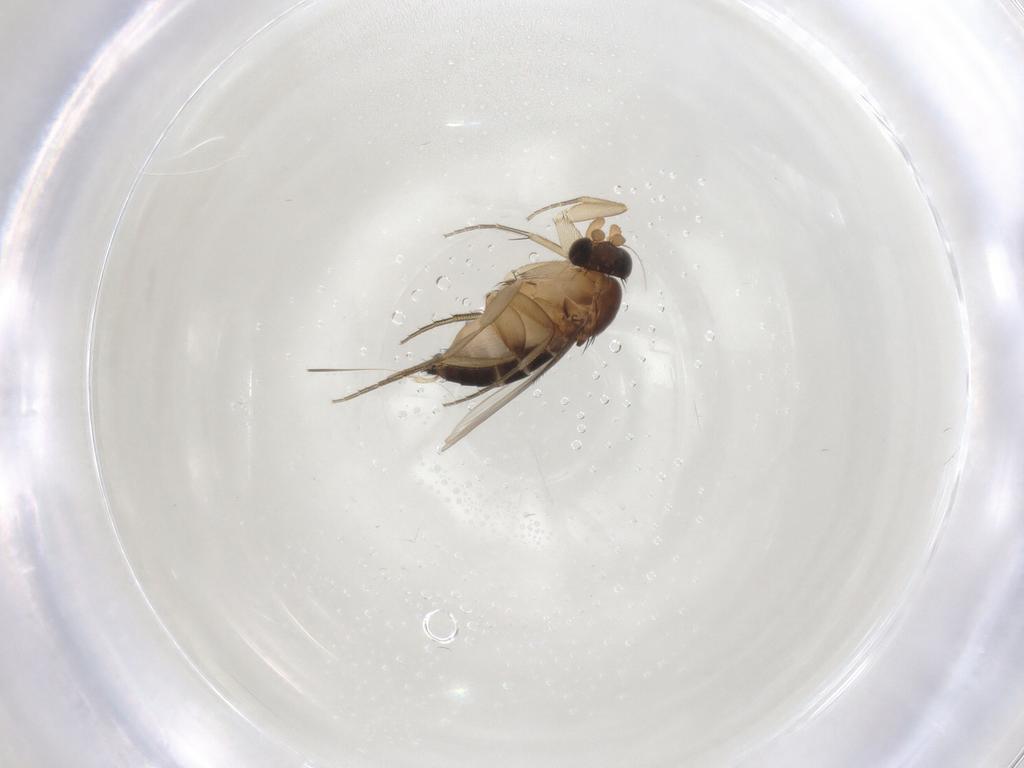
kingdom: Animalia
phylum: Arthropoda
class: Insecta
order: Diptera
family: Phoridae
